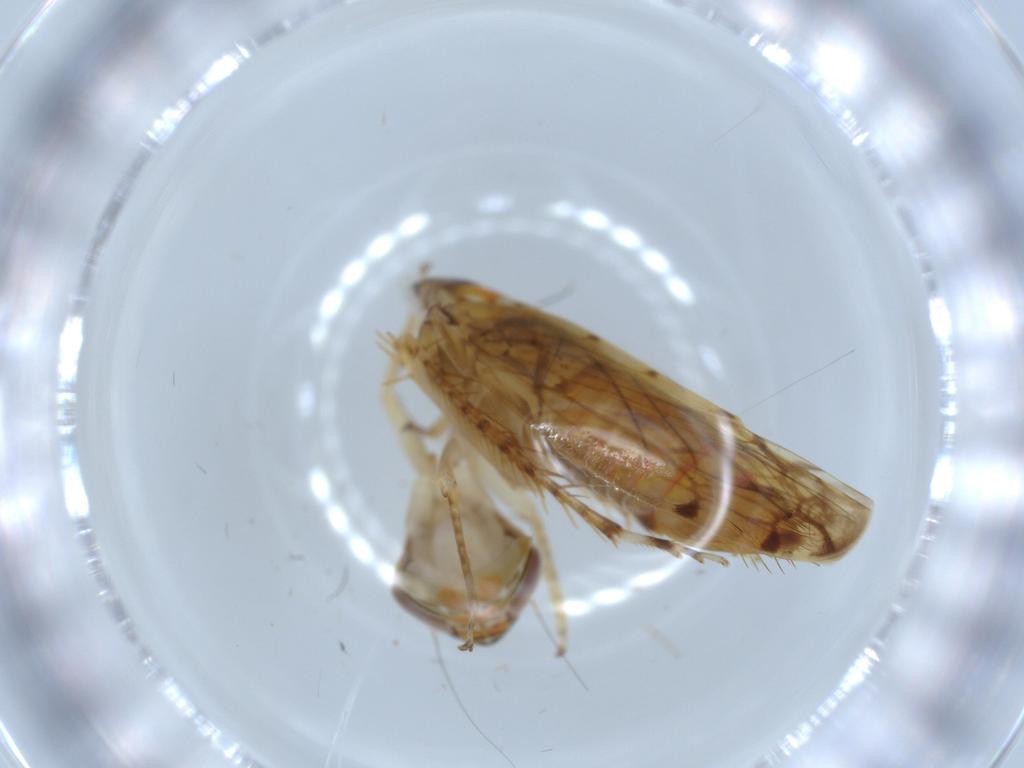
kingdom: Animalia
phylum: Arthropoda
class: Insecta
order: Hemiptera
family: Cicadellidae
